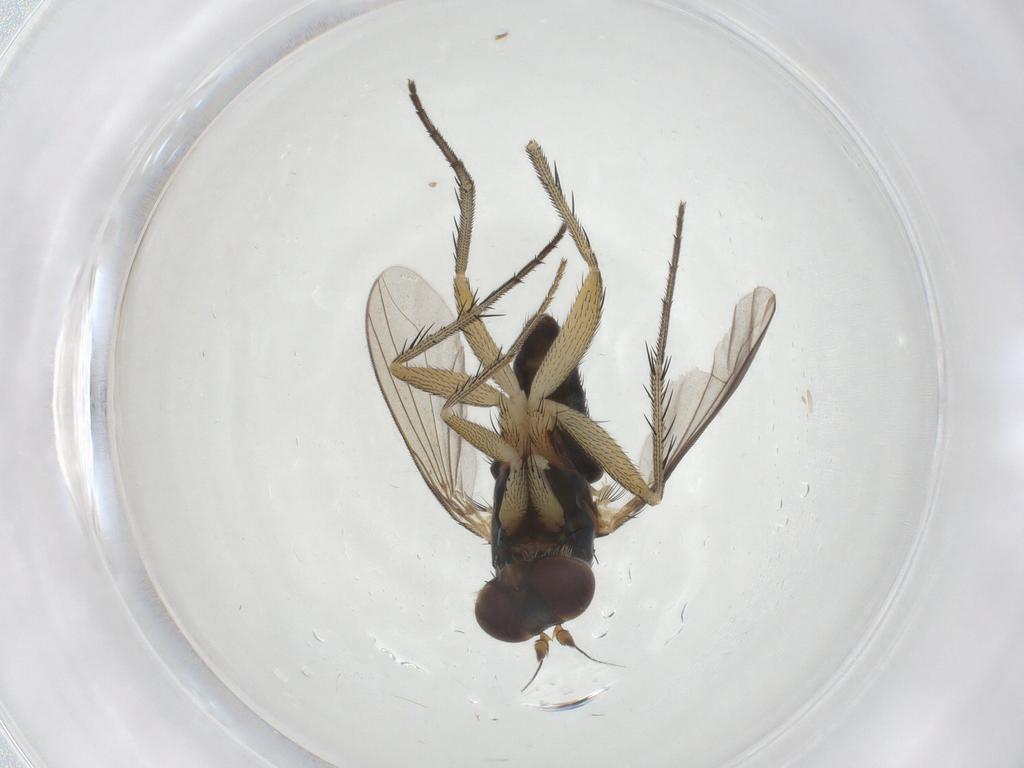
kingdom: Animalia
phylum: Arthropoda
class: Insecta
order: Diptera
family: Dolichopodidae
